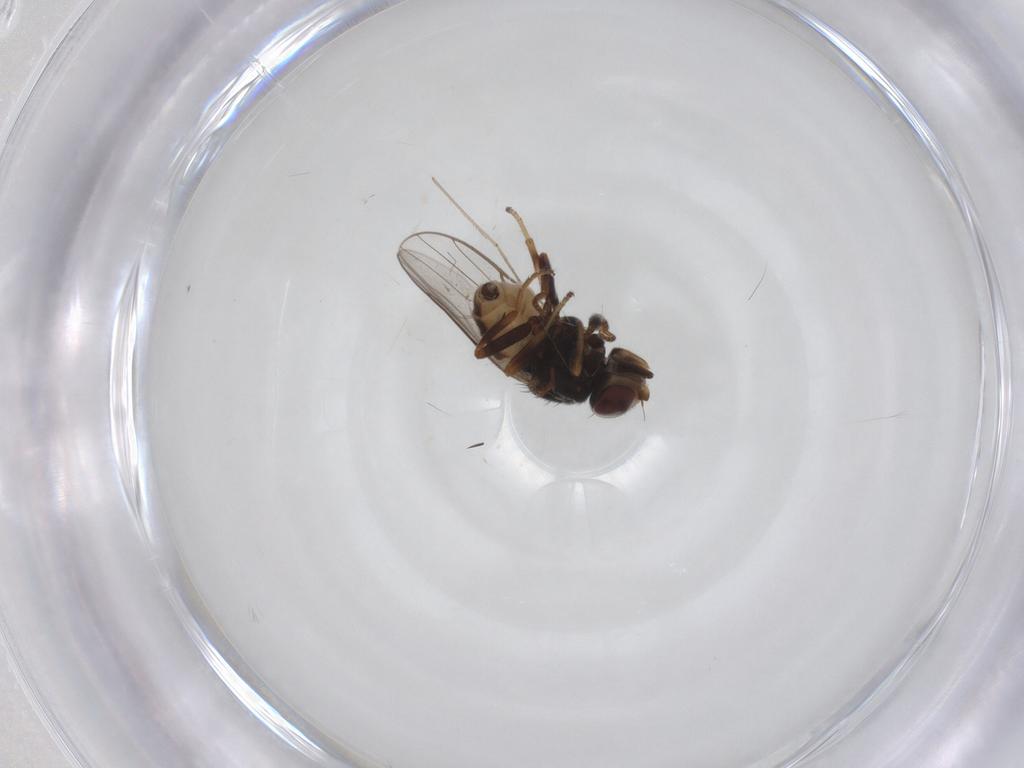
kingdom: Animalia
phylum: Arthropoda
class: Insecta
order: Diptera
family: Chloropidae
